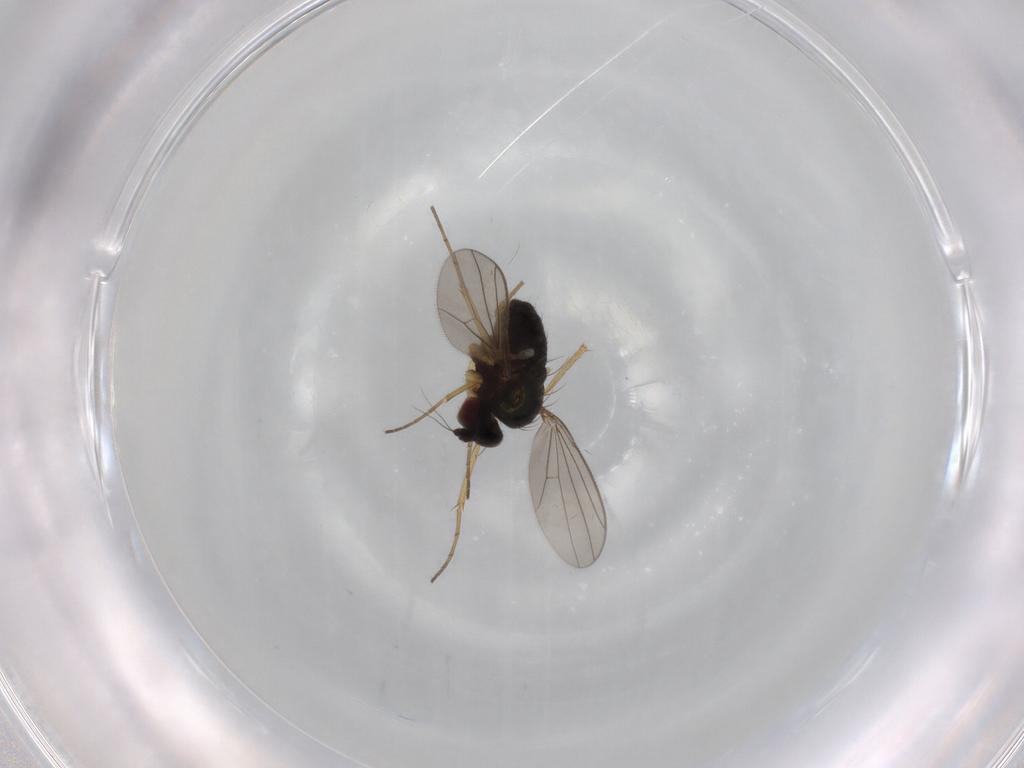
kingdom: Animalia
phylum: Arthropoda
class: Insecta
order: Diptera
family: Dolichopodidae
